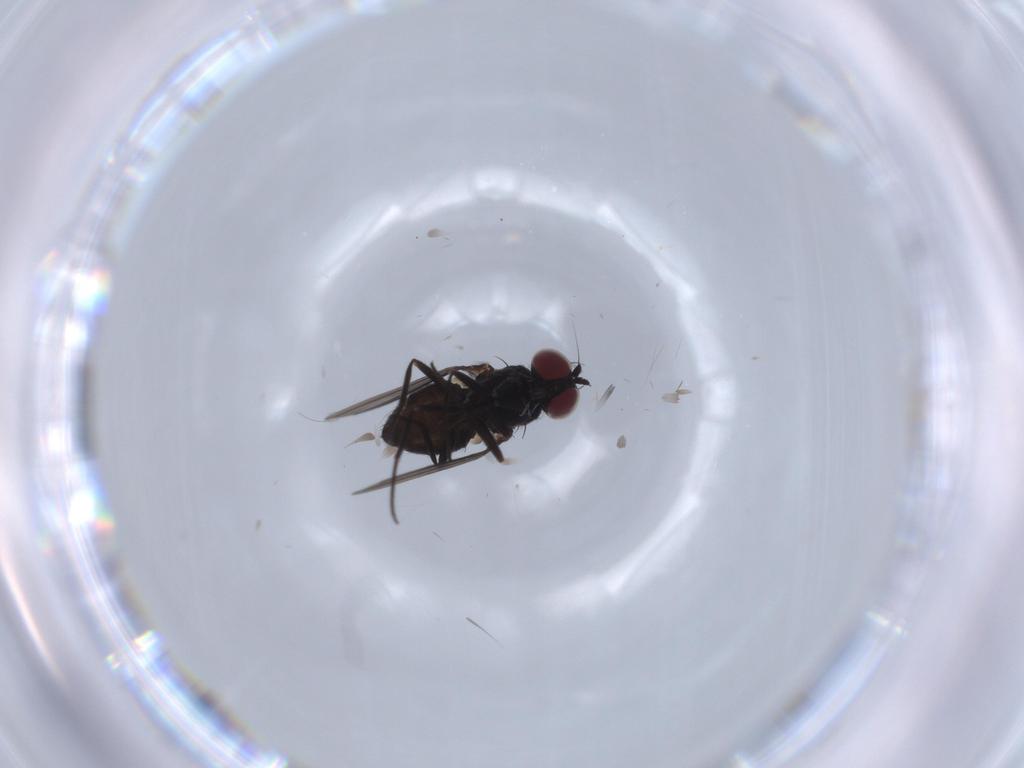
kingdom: Animalia
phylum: Arthropoda
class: Insecta
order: Diptera
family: Dolichopodidae
